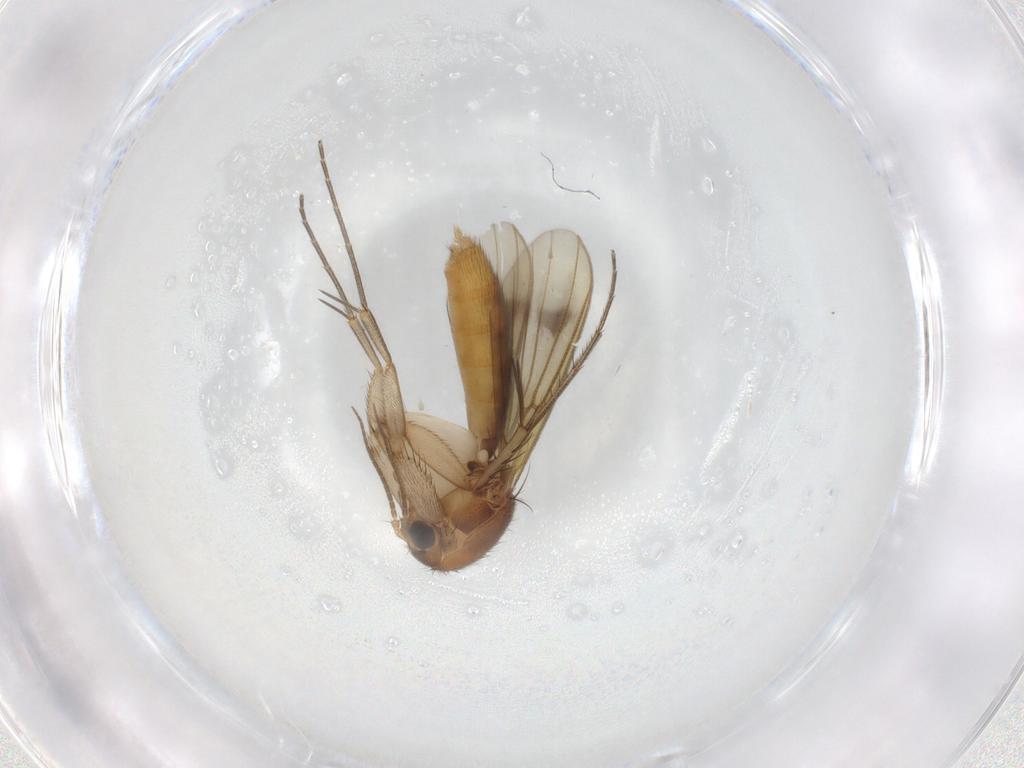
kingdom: Animalia
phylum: Arthropoda
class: Insecta
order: Diptera
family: Mycetophilidae
